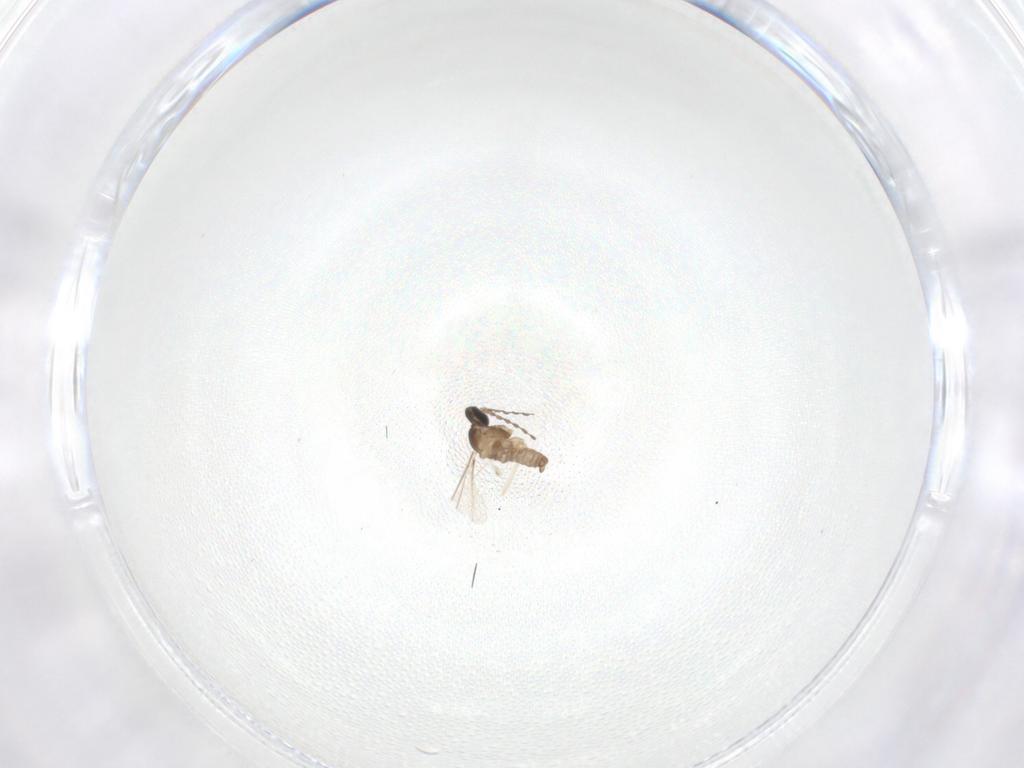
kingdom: Animalia
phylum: Arthropoda
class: Insecta
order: Diptera
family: Cecidomyiidae
